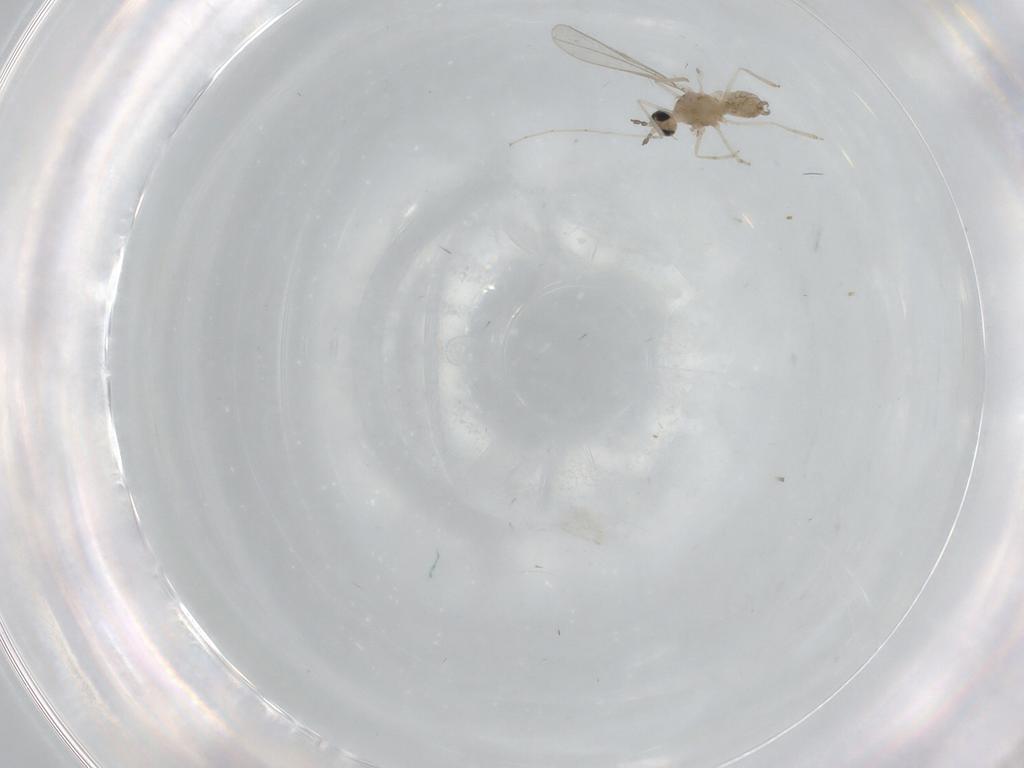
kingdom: Animalia
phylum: Arthropoda
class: Insecta
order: Diptera
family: Cecidomyiidae
